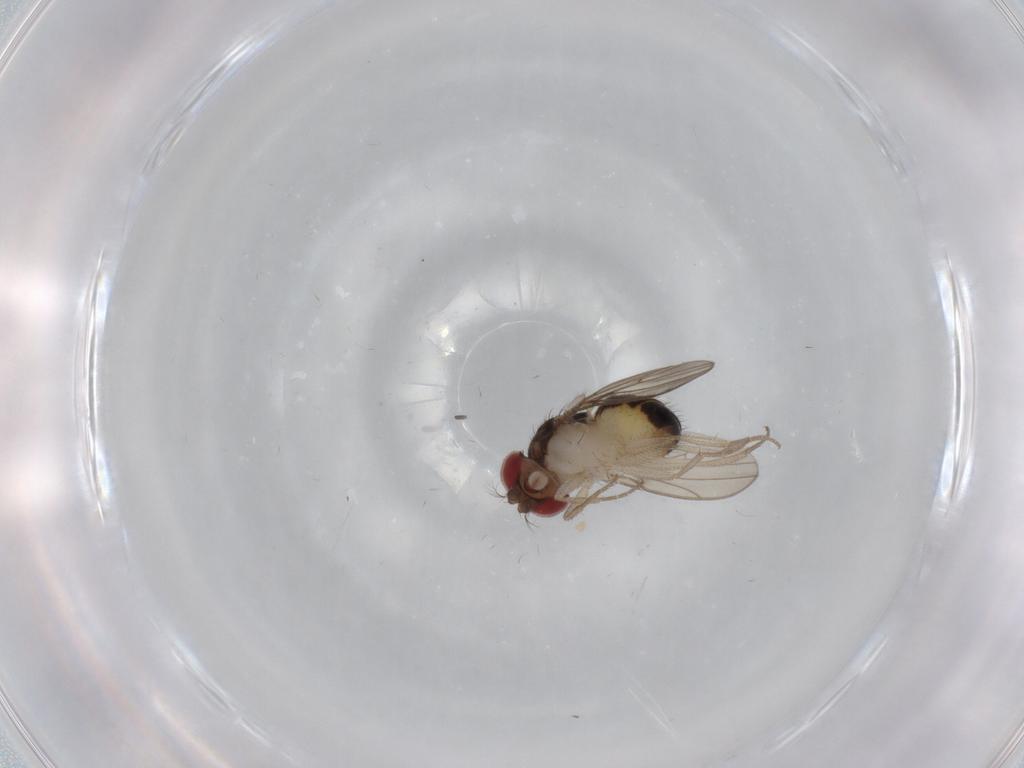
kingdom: Animalia
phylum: Arthropoda
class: Insecta
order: Diptera
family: Drosophilidae
